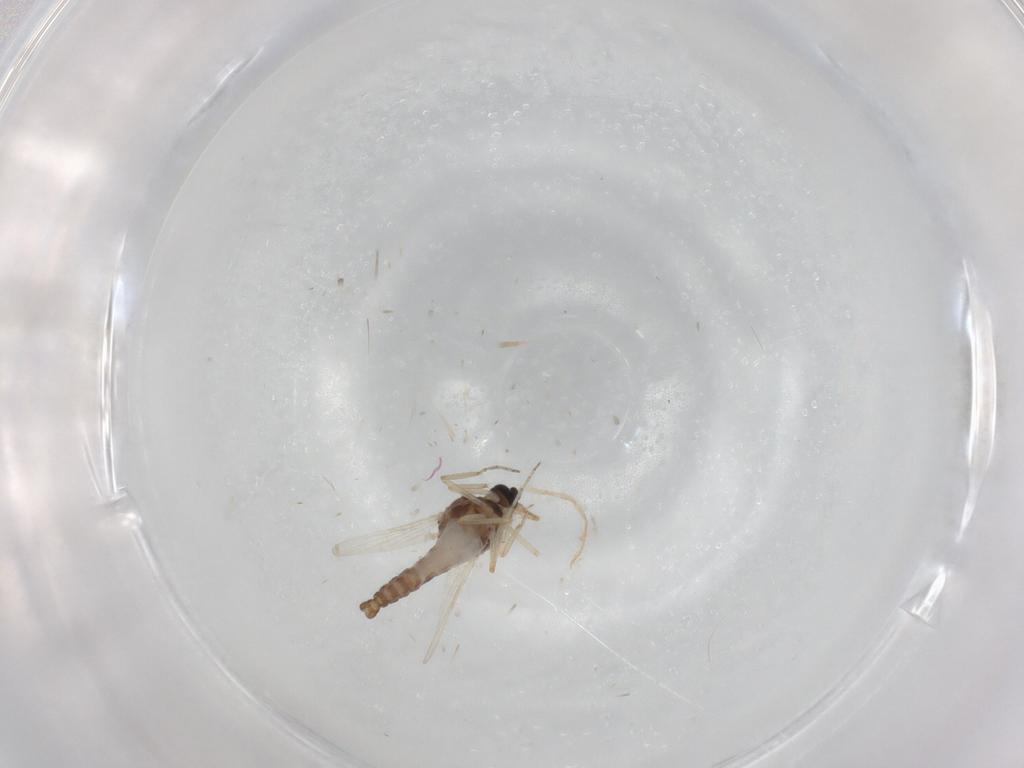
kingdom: Animalia
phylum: Arthropoda
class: Insecta
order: Diptera
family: Ceratopogonidae
